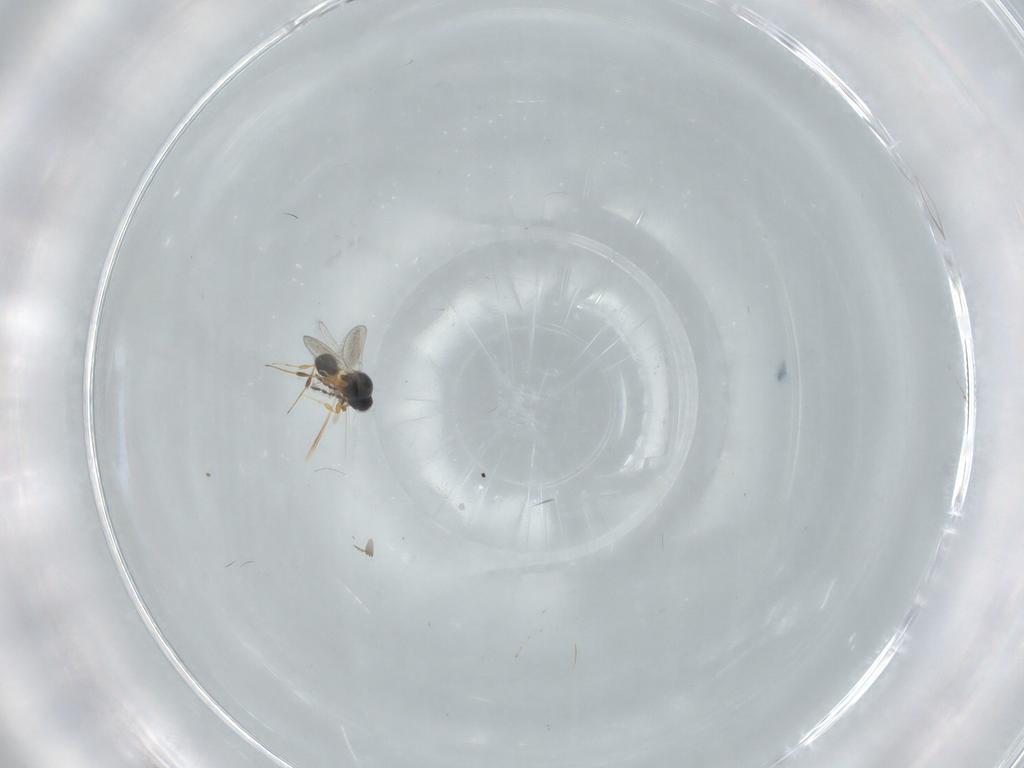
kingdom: Animalia
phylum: Arthropoda
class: Insecta
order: Hymenoptera
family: Platygastridae
